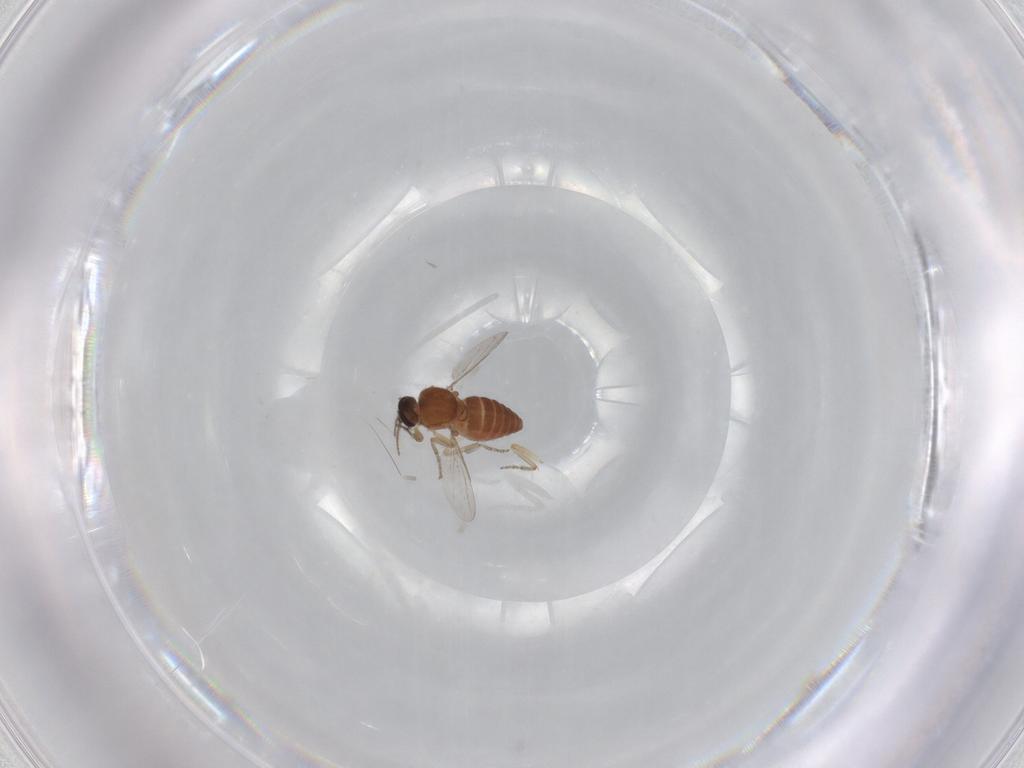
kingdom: Animalia
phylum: Arthropoda
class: Insecta
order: Diptera
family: Ceratopogonidae
